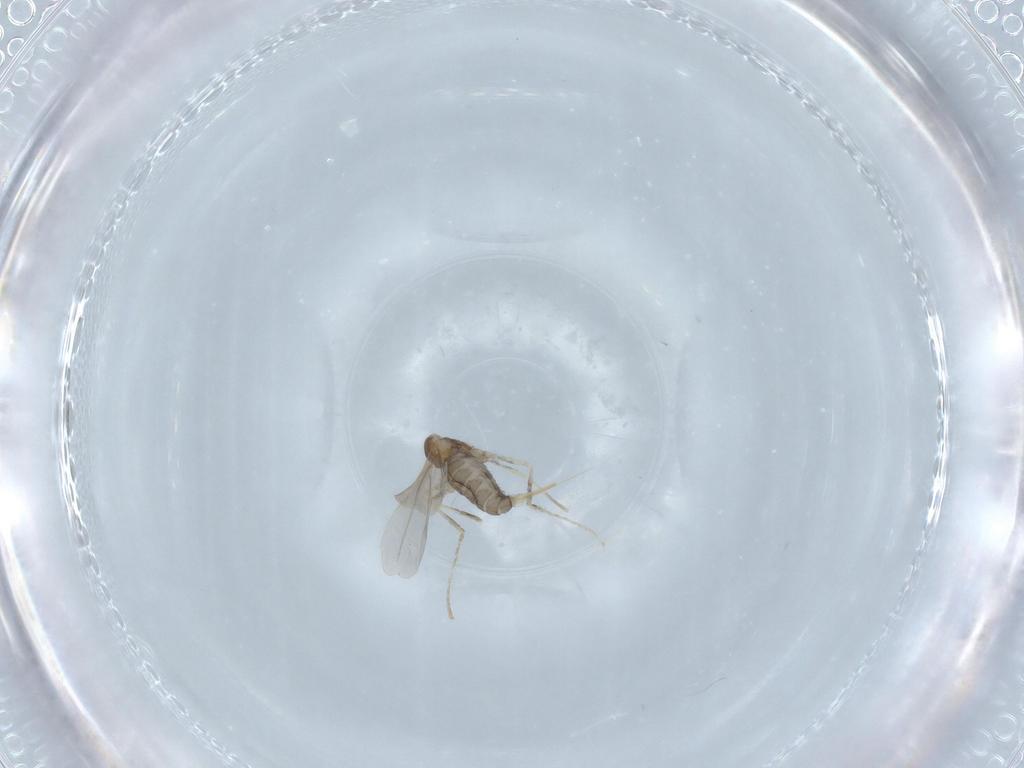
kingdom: Animalia
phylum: Arthropoda
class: Insecta
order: Diptera
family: Cecidomyiidae
